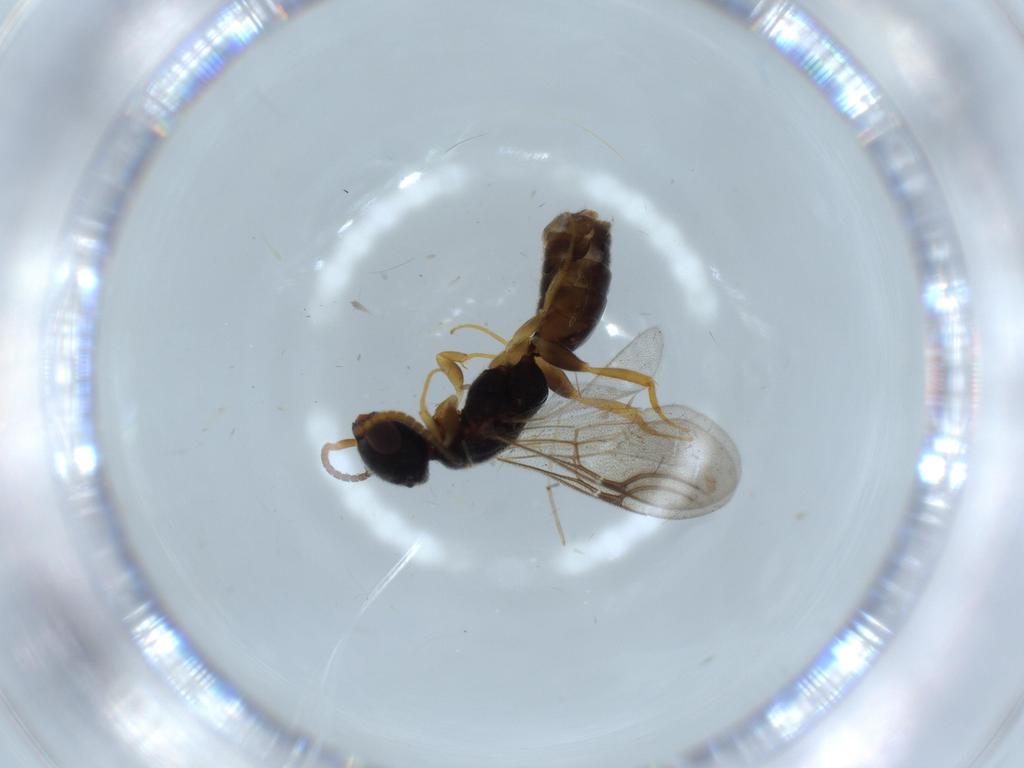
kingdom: Animalia
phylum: Arthropoda
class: Insecta
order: Hymenoptera
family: Bethylidae
